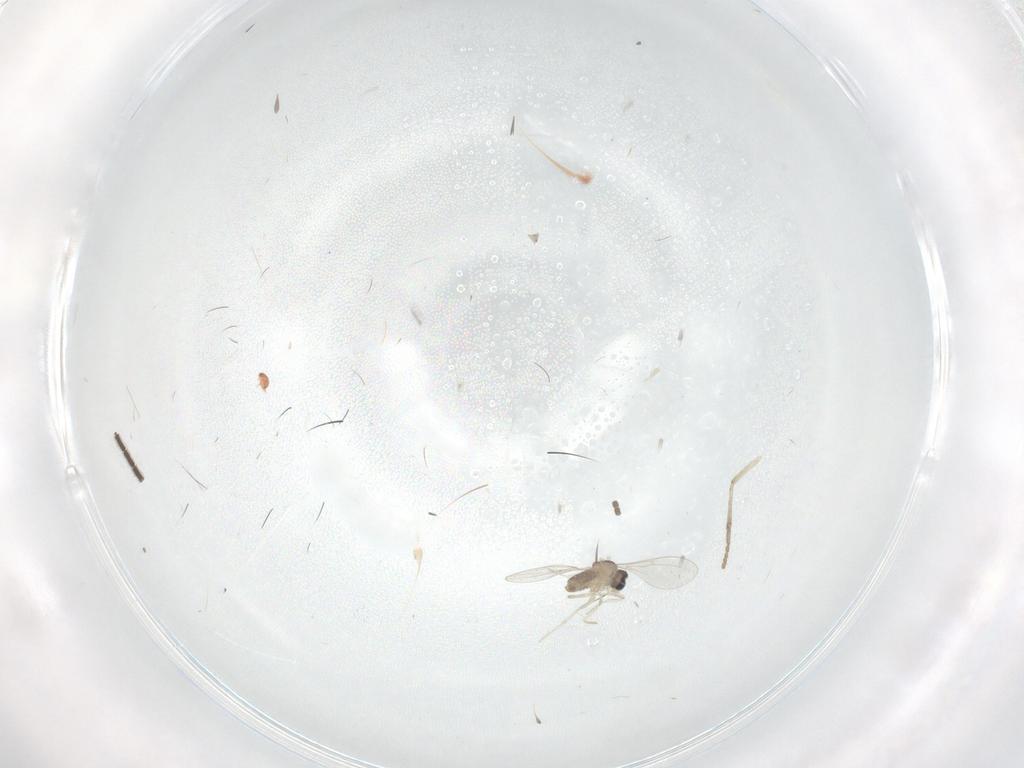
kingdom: Animalia
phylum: Arthropoda
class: Insecta
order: Diptera
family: Cecidomyiidae
